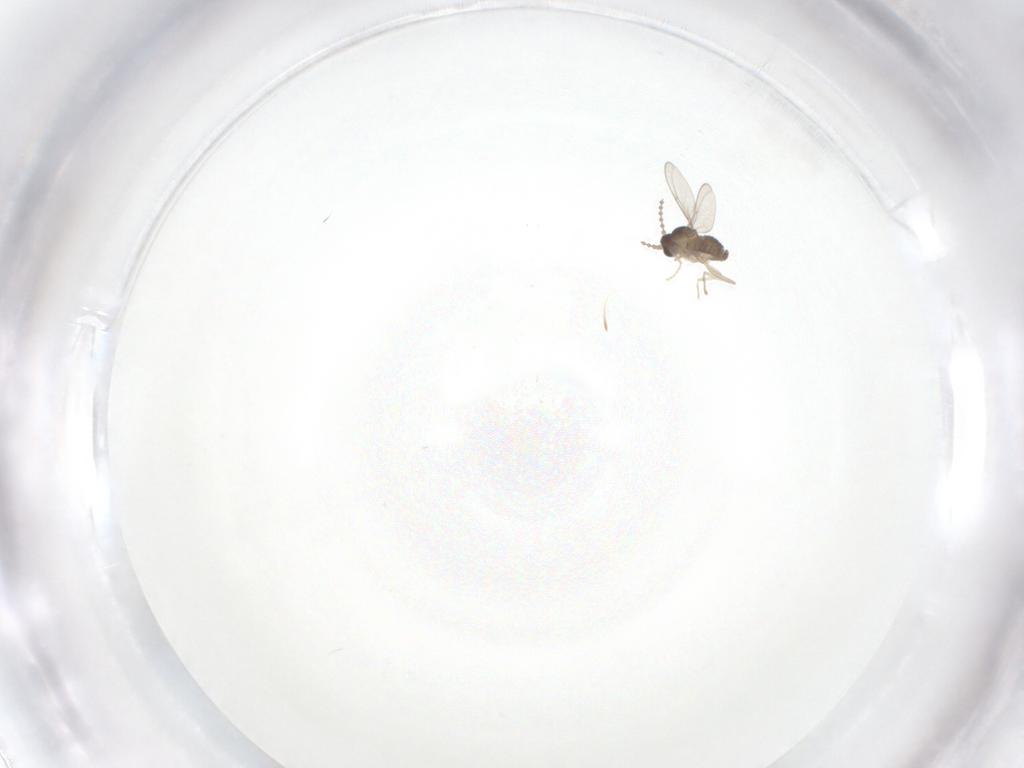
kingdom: Animalia
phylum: Arthropoda
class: Insecta
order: Diptera
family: Cecidomyiidae
